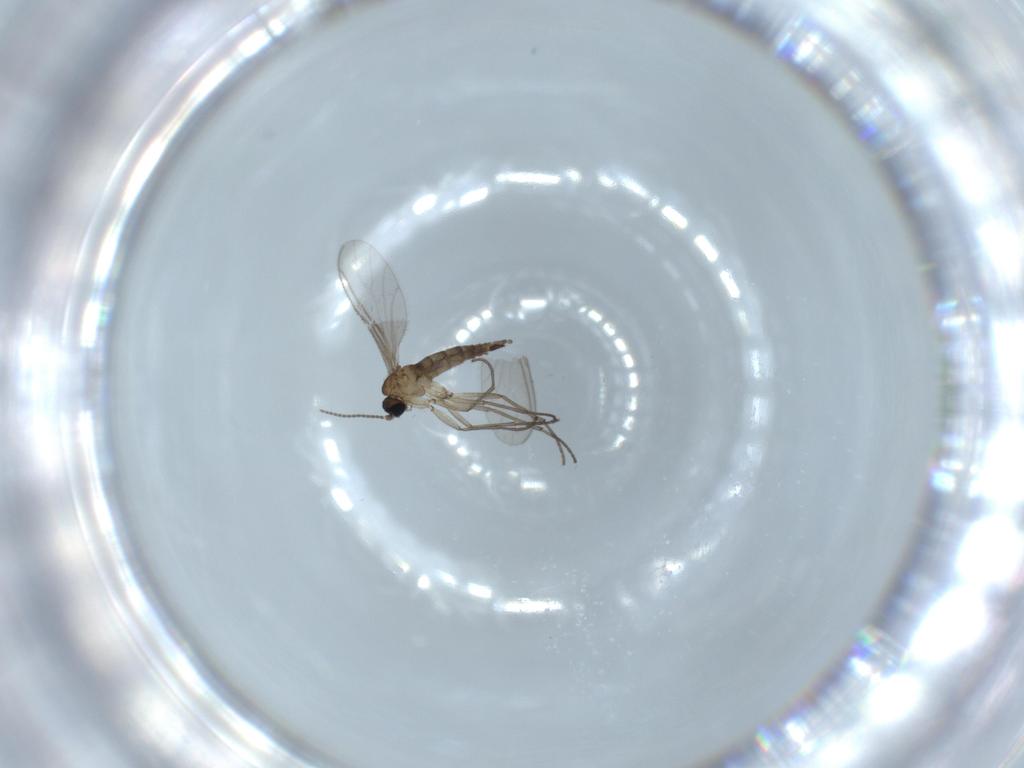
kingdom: Animalia
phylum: Arthropoda
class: Insecta
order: Diptera
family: Sciaridae
